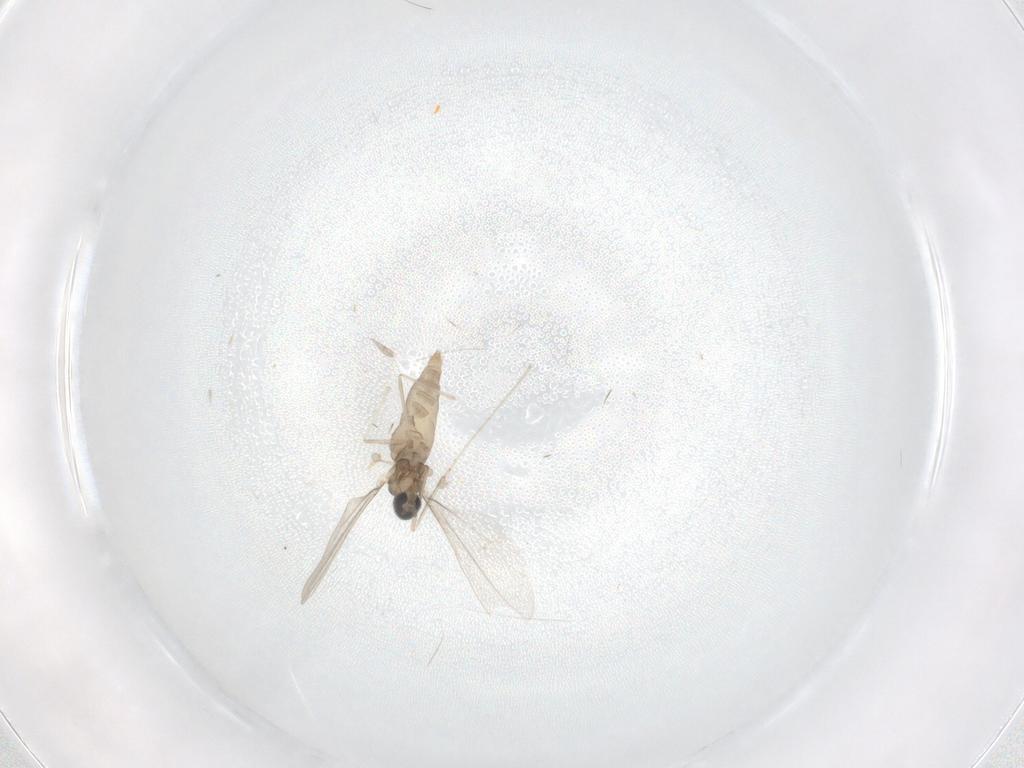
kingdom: Animalia
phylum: Arthropoda
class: Insecta
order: Diptera
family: Cecidomyiidae
